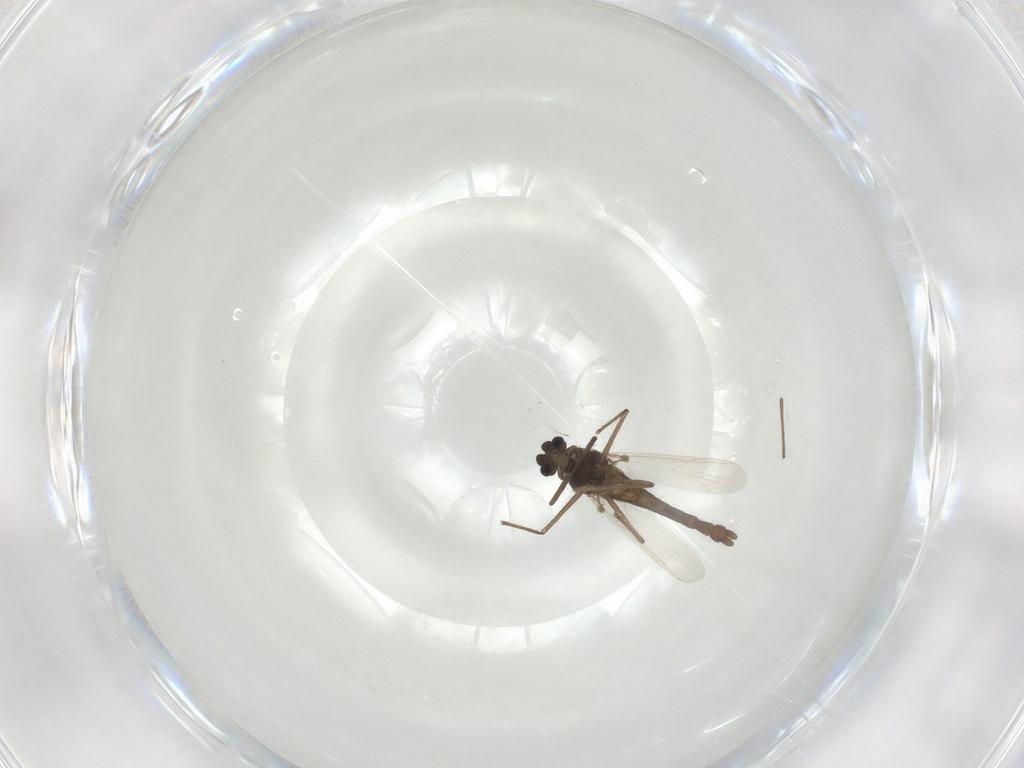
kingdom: Animalia
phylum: Arthropoda
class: Insecta
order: Diptera
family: Chironomidae
